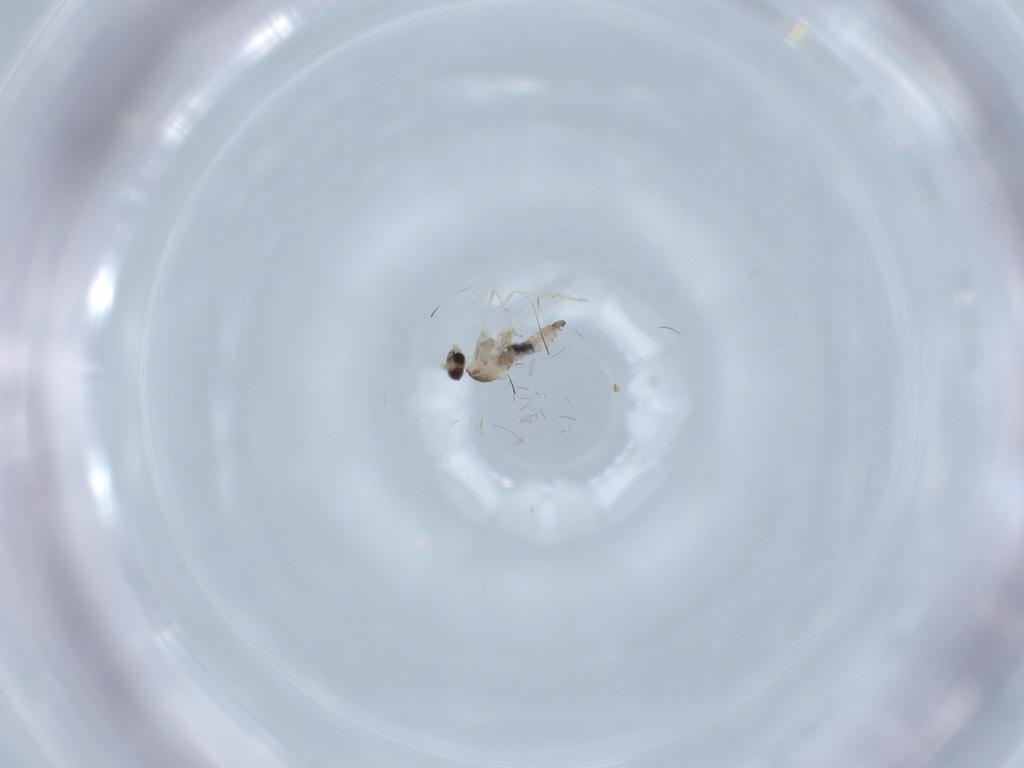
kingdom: Animalia
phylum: Arthropoda
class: Insecta
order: Diptera
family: Cecidomyiidae
